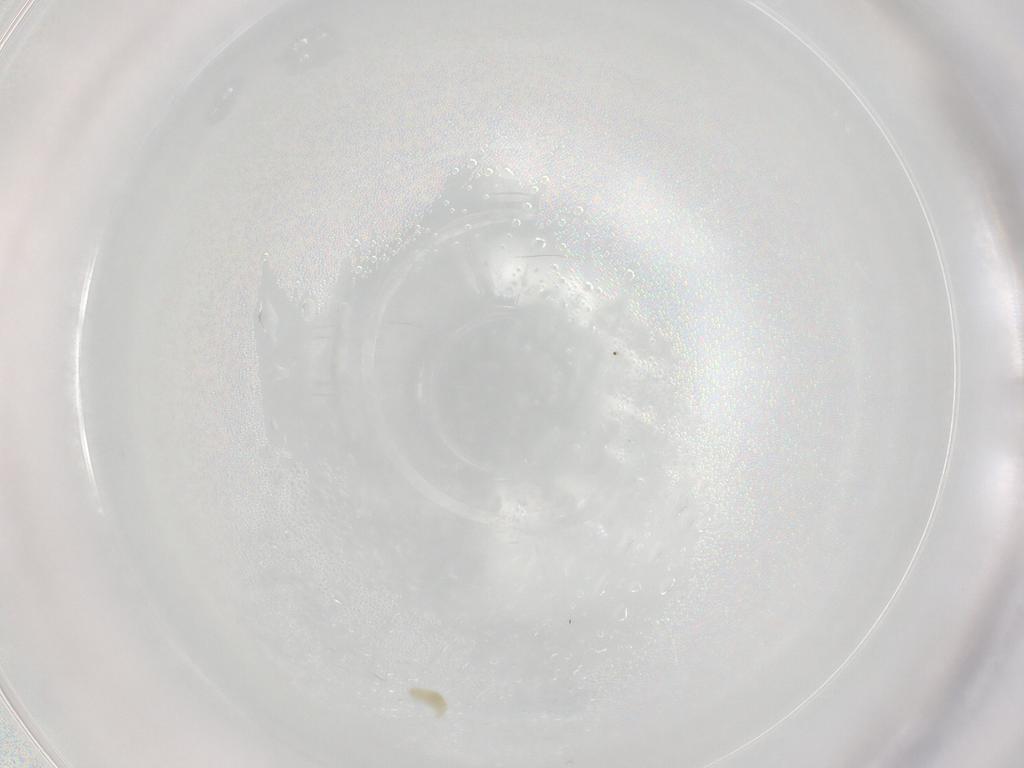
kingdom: Animalia
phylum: Arthropoda
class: Arachnida
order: Trombidiformes
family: Eupodidae
